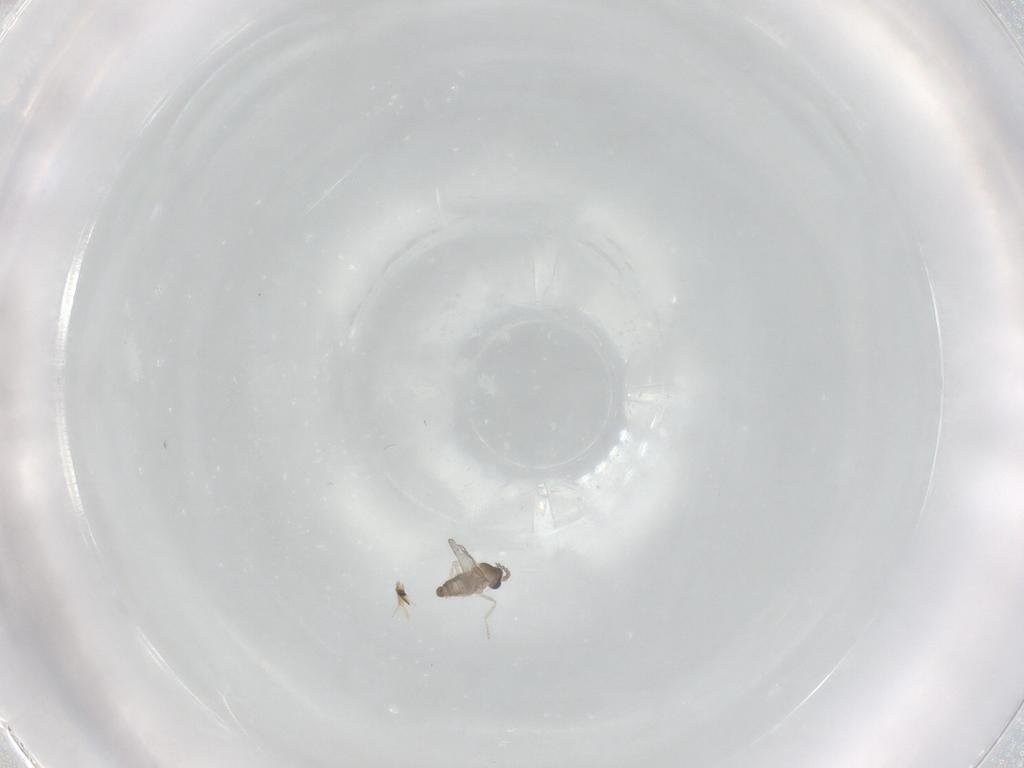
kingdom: Animalia
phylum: Arthropoda
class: Insecta
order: Diptera
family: Cecidomyiidae
